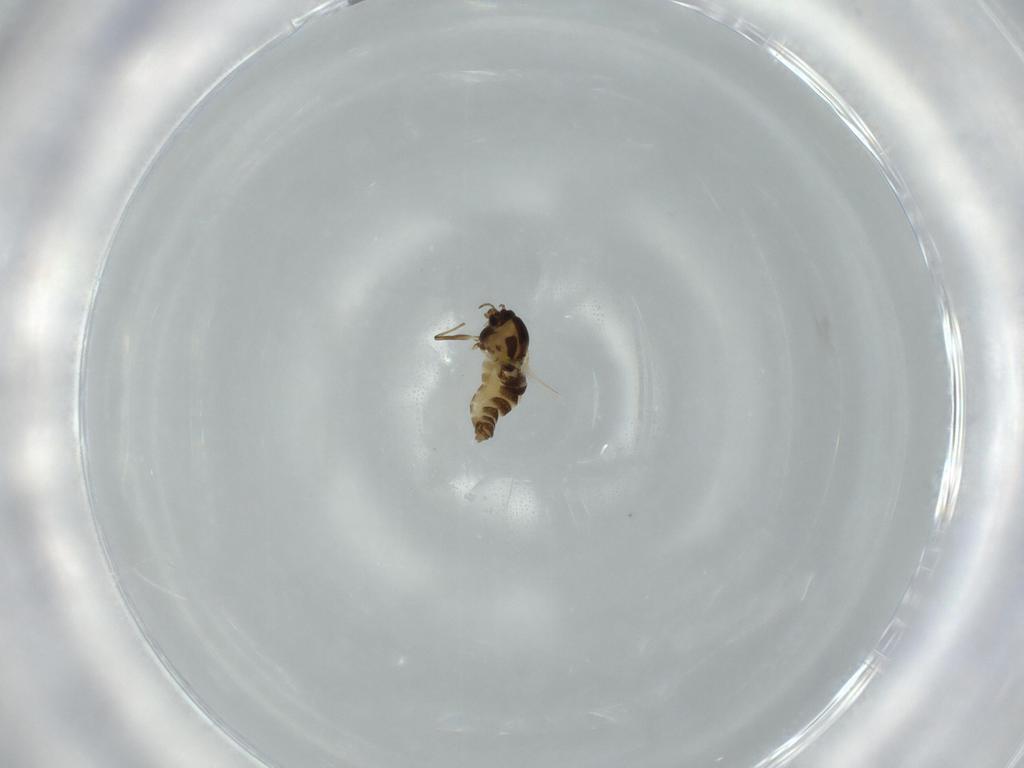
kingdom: Animalia
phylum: Arthropoda
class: Insecta
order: Diptera
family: Chironomidae
